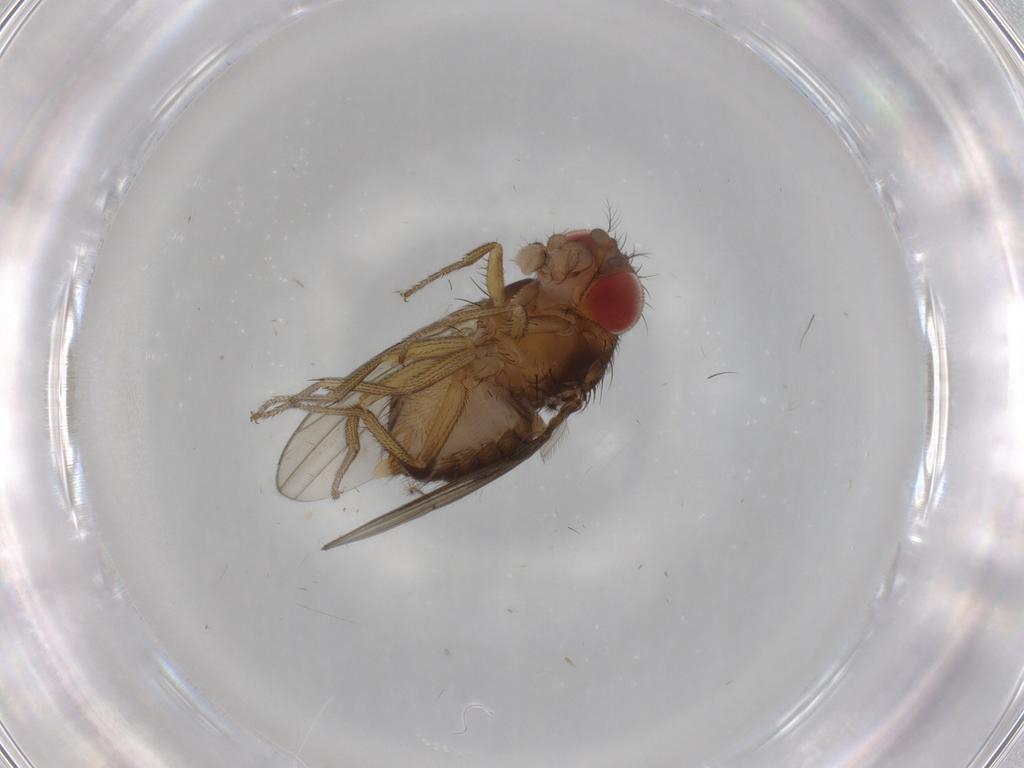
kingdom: Animalia
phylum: Arthropoda
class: Insecta
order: Diptera
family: Drosophilidae
